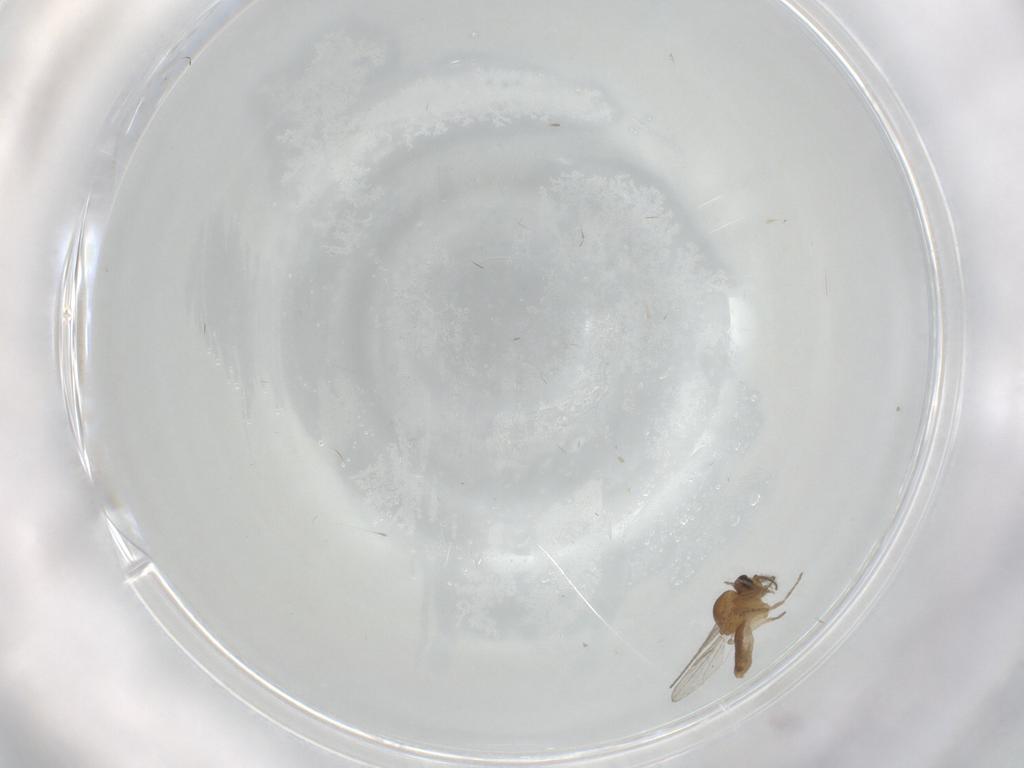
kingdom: Animalia
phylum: Arthropoda
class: Insecta
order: Diptera
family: Ceratopogonidae
